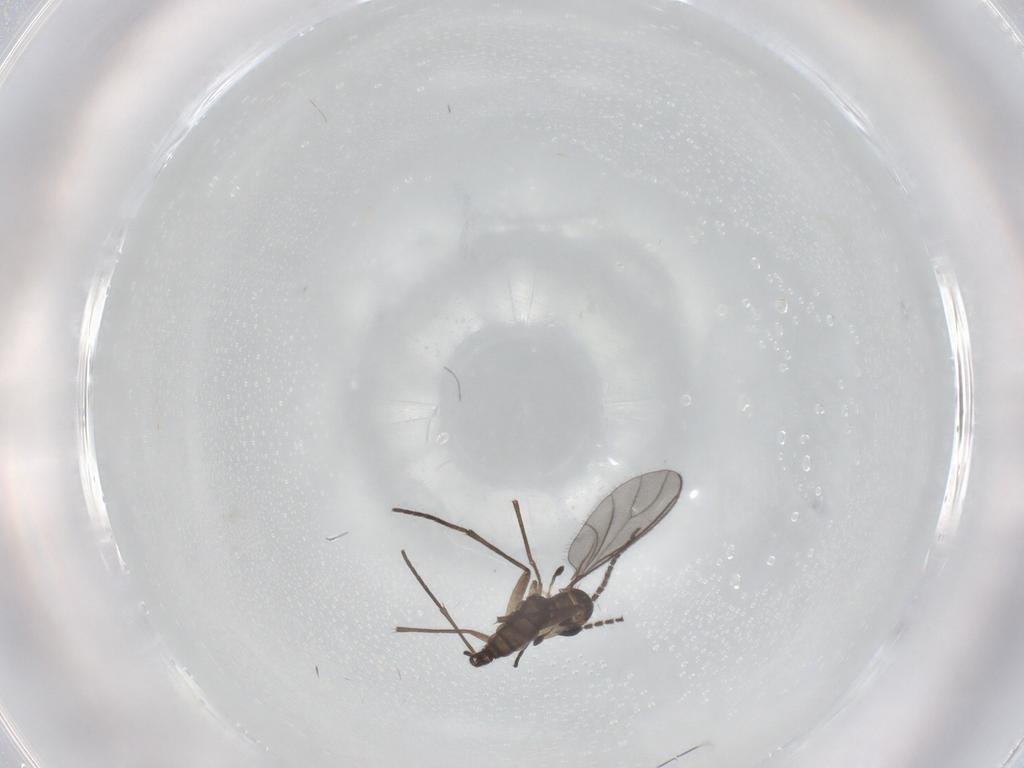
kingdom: Animalia
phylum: Arthropoda
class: Insecta
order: Diptera
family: Sciaridae
